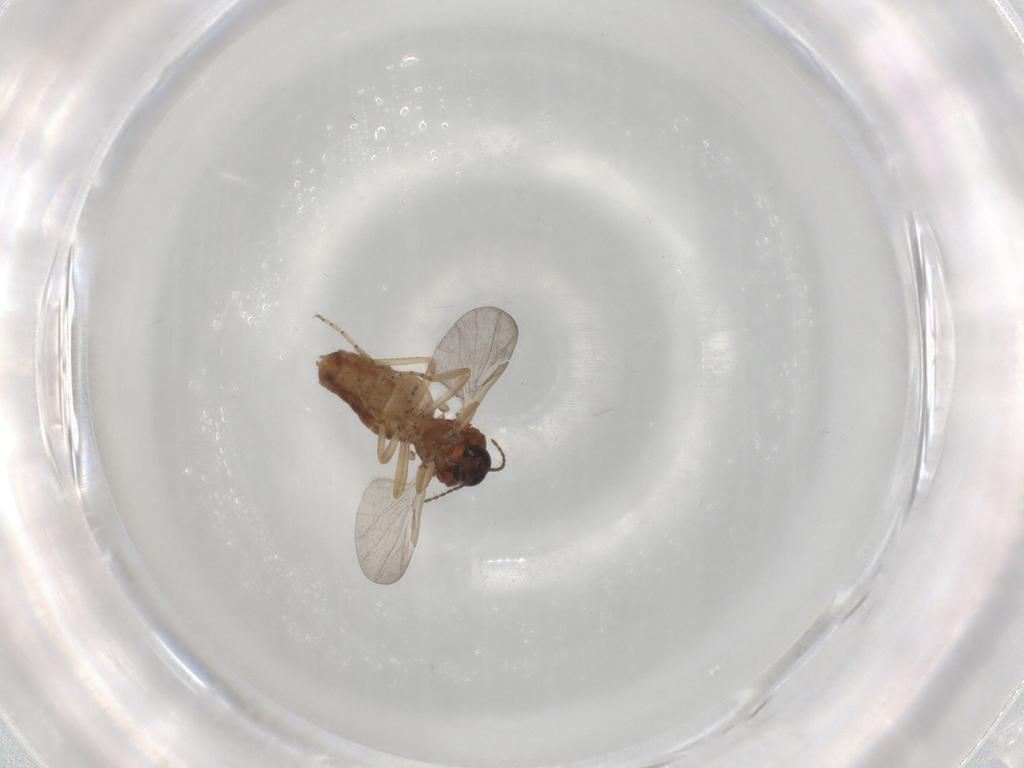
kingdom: Animalia
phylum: Arthropoda
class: Insecta
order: Diptera
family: Ceratopogonidae
